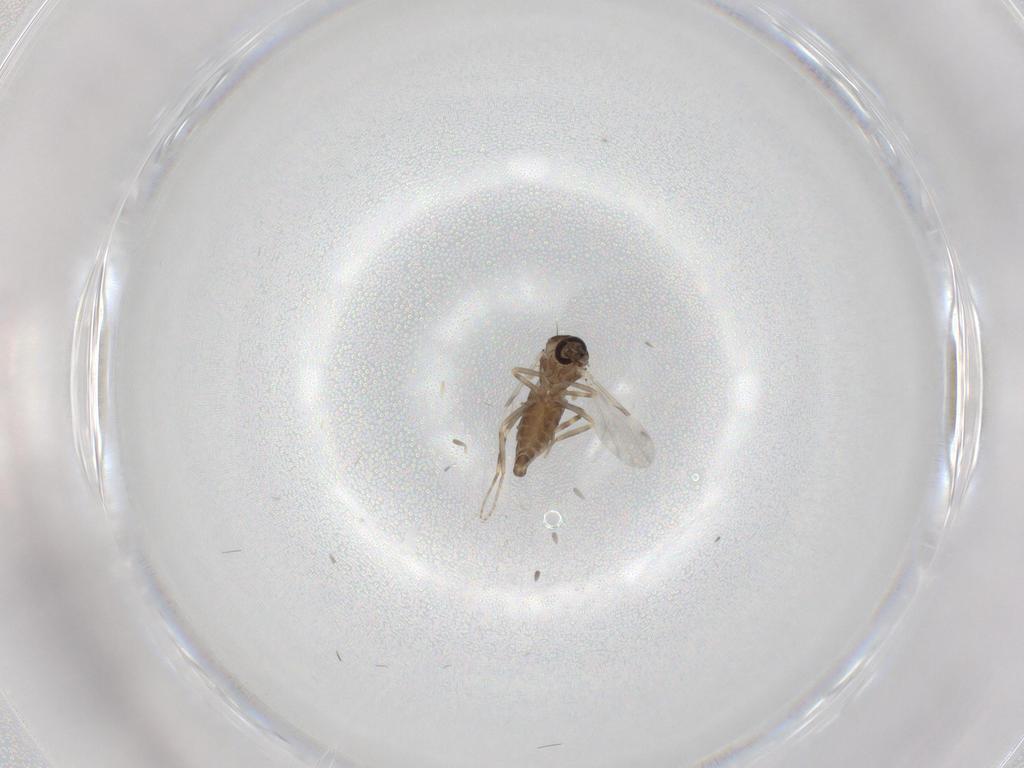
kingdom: Animalia
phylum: Arthropoda
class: Insecta
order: Diptera
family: Ceratopogonidae
